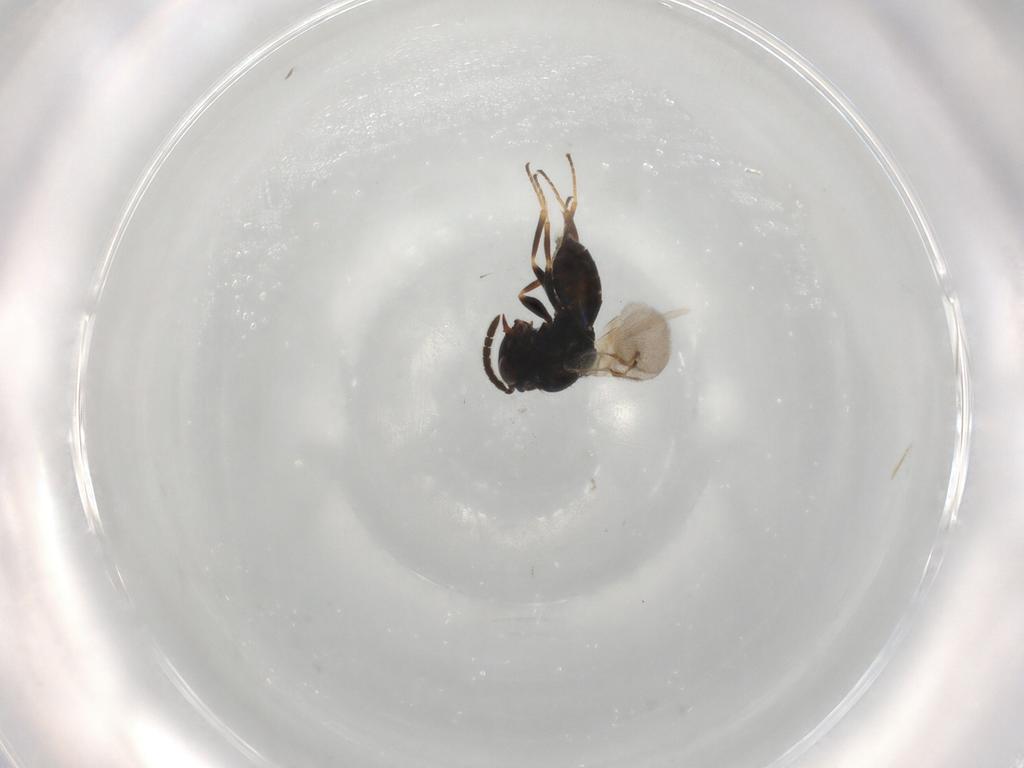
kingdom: Animalia
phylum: Arthropoda
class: Insecta
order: Hymenoptera
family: Pteromalidae
